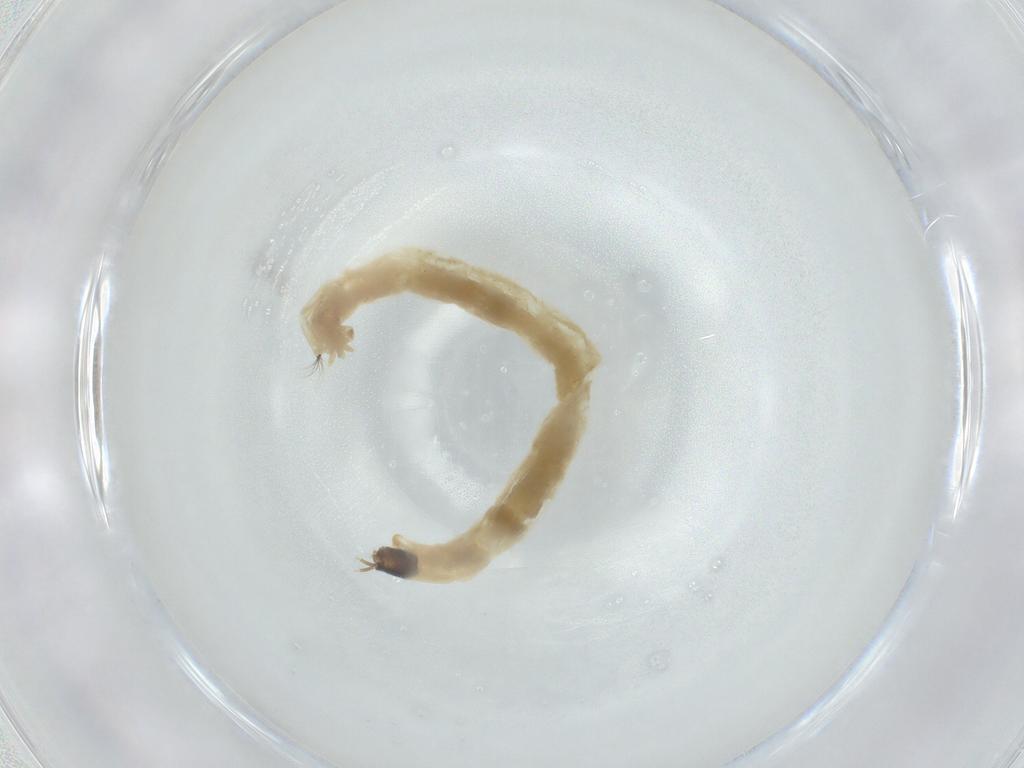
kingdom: Animalia
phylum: Arthropoda
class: Insecta
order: Diptera
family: Chironomidae
